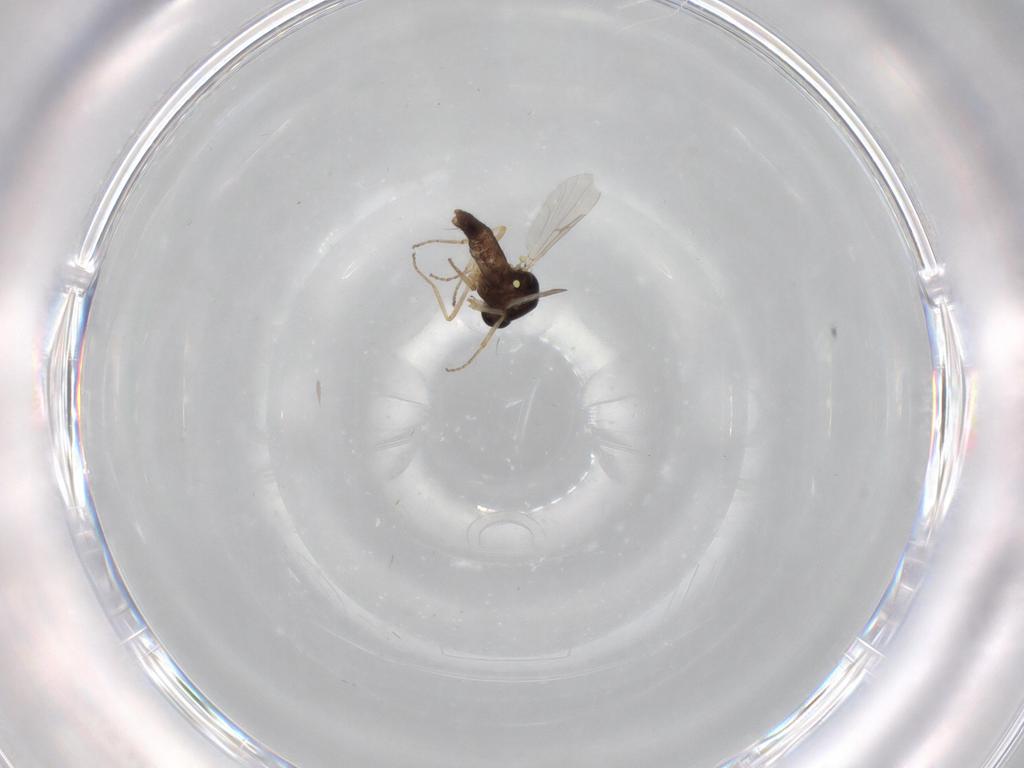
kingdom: Animalia
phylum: Arthropoda
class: Insecta
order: Diptera
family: Ceratopogonidae
